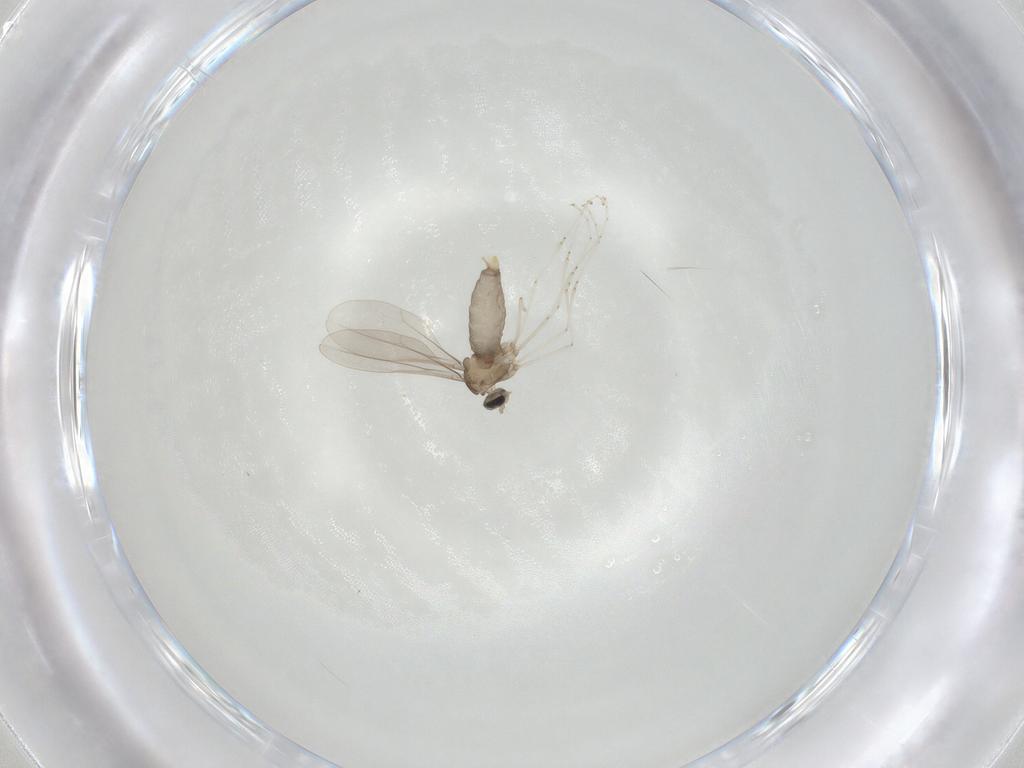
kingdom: Animalia
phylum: Arthropoda
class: Insecta
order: Diptera
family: Cecidomyiidae
